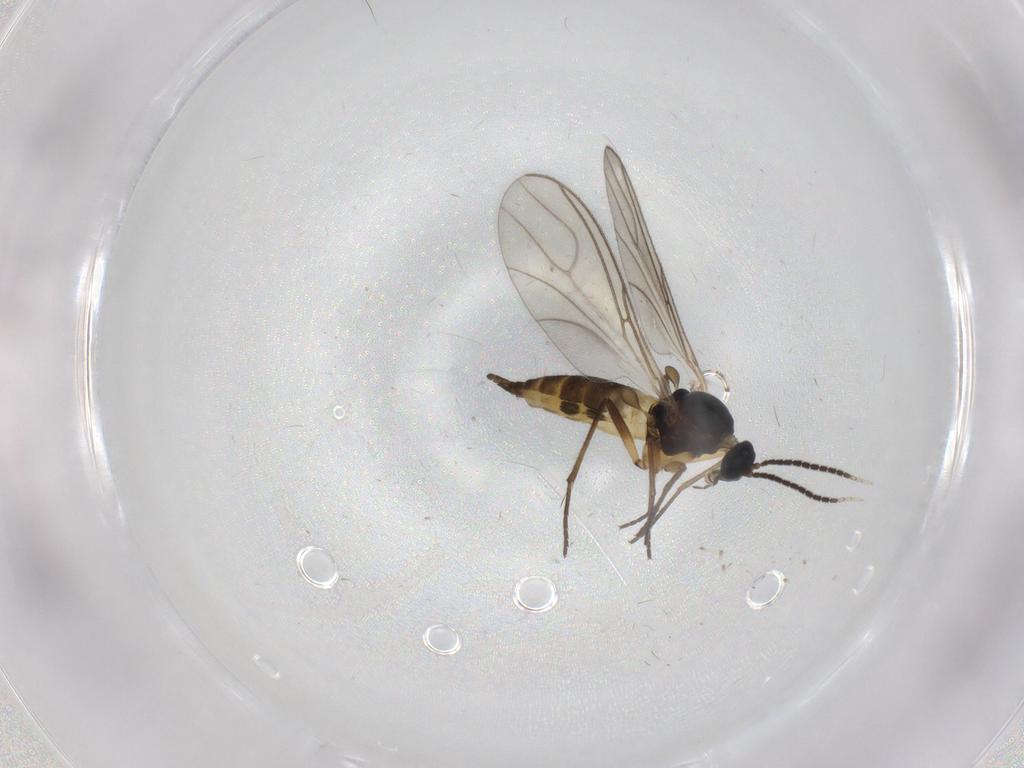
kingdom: Animalia
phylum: Arthropoda
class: Insecta
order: Diptera
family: Sciaridae
